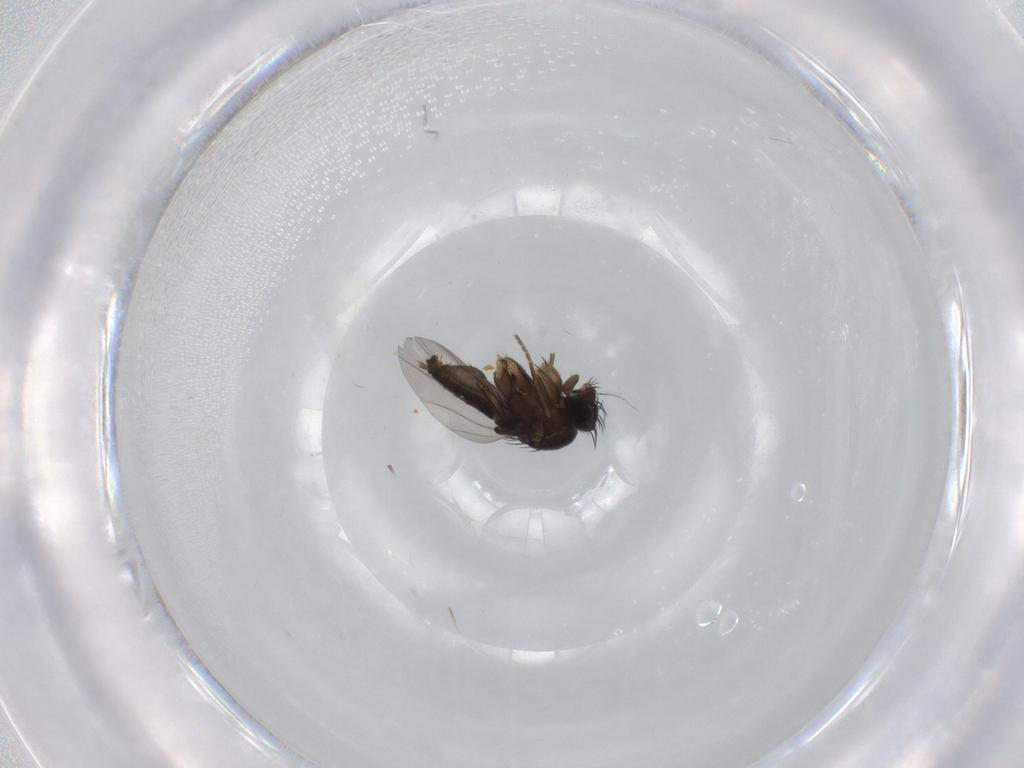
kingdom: Animalia
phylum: Arthropoda
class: Insecta
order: Diptera
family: Phoridae
